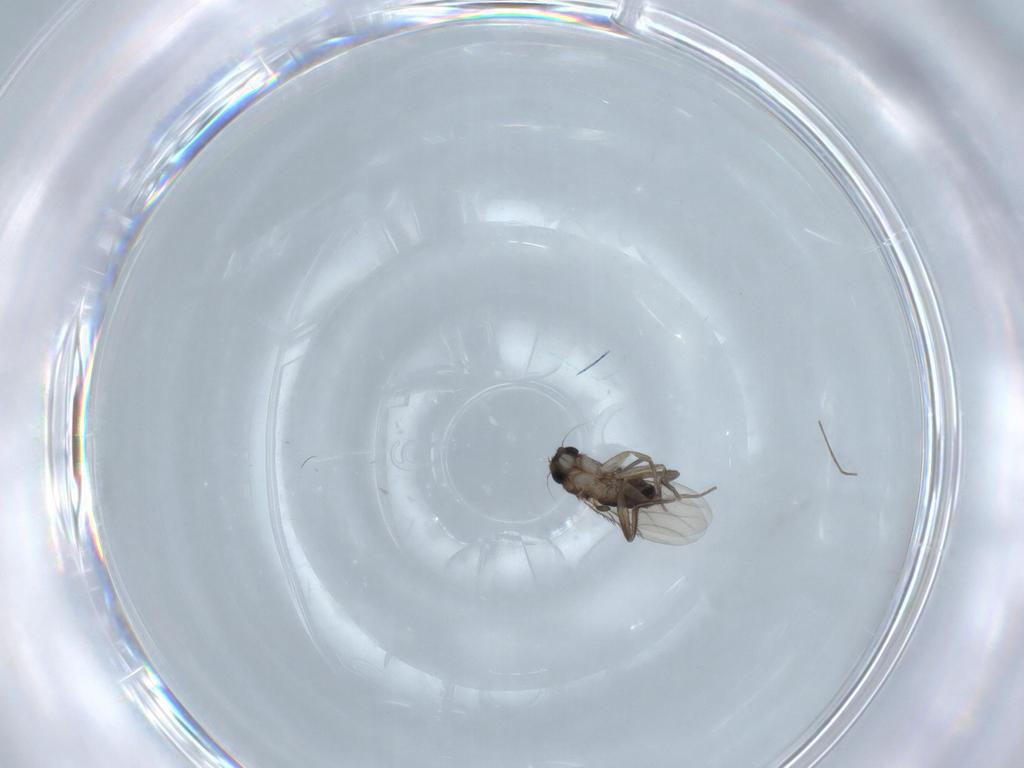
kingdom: Animalia
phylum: Arthropoda
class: Insecta
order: Diptera
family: Phoridae
